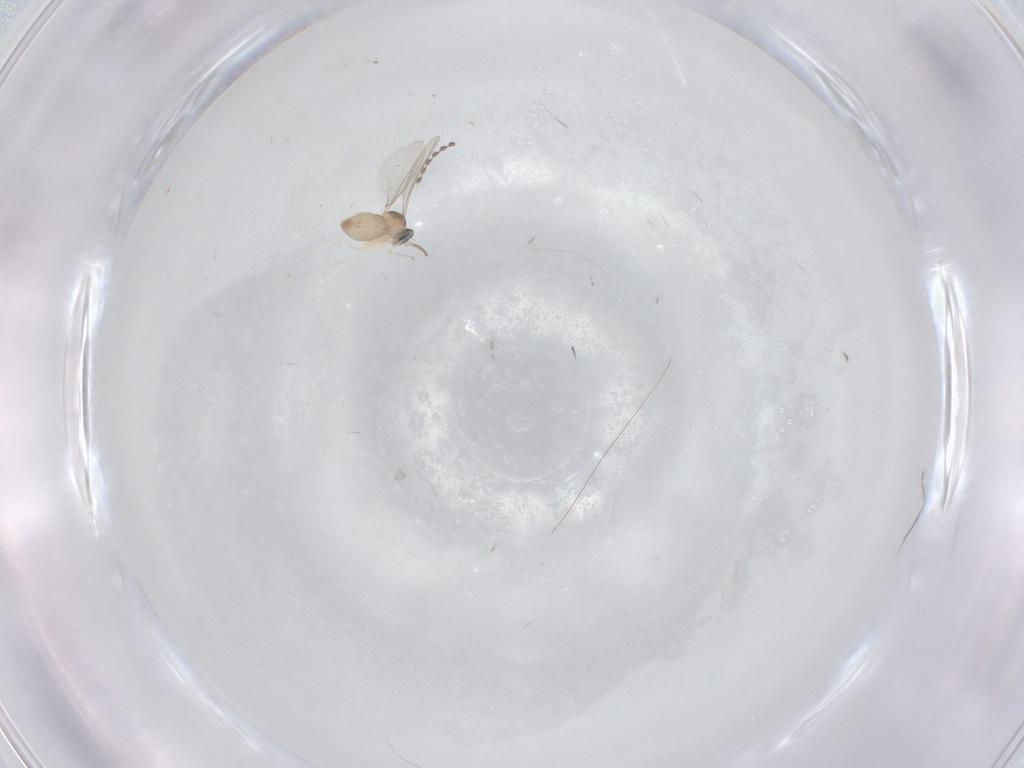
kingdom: Animalia
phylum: Arthropoda
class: Insecta
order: Diptera
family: Cecidomyiidae
